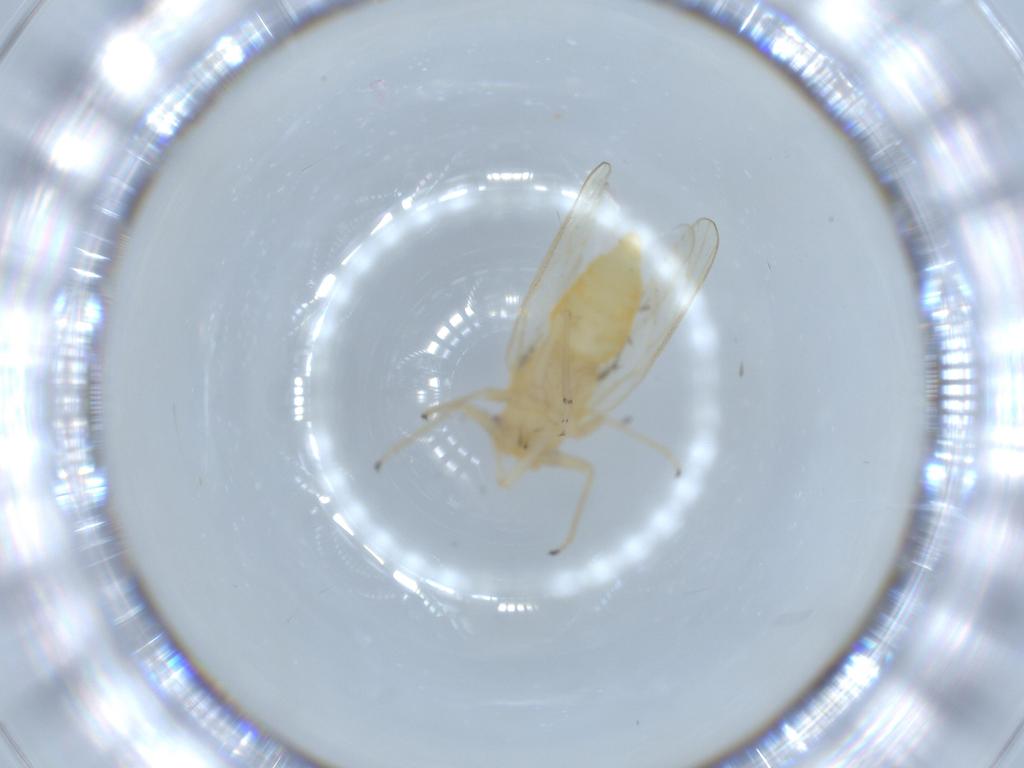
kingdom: Animalia
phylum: Arthropoda
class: Insecta
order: Hemiptera
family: Psyllidae
